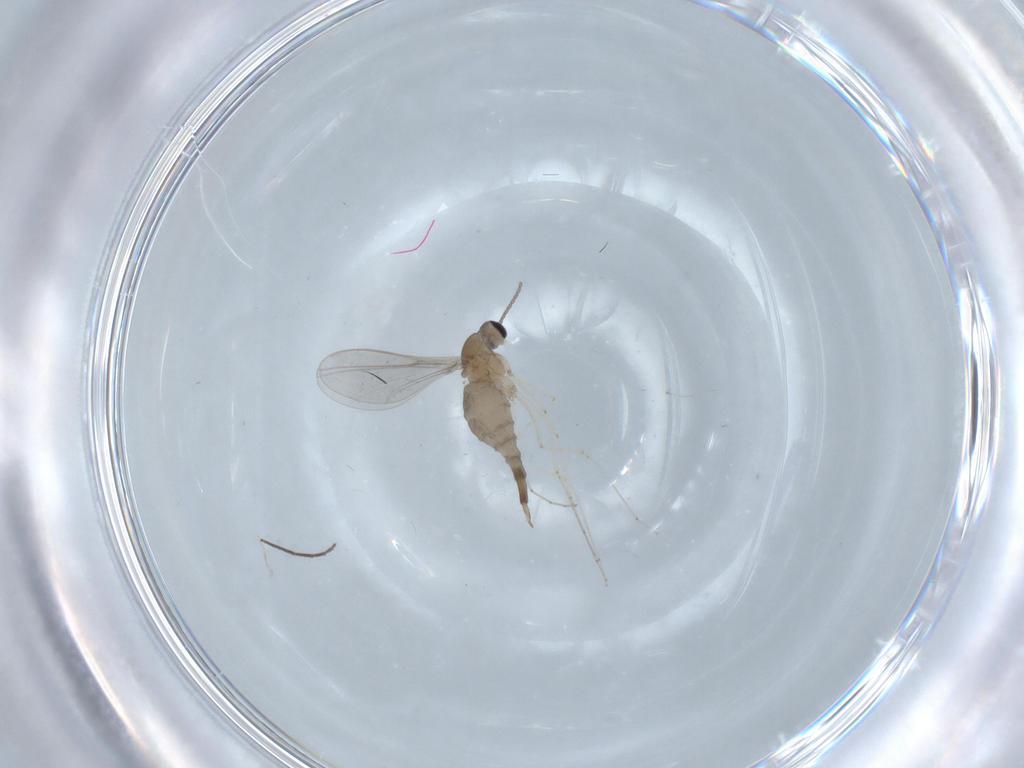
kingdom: Animalia
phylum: Arthropoda
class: Insecta
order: Diptera
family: Cecidomyiidae
